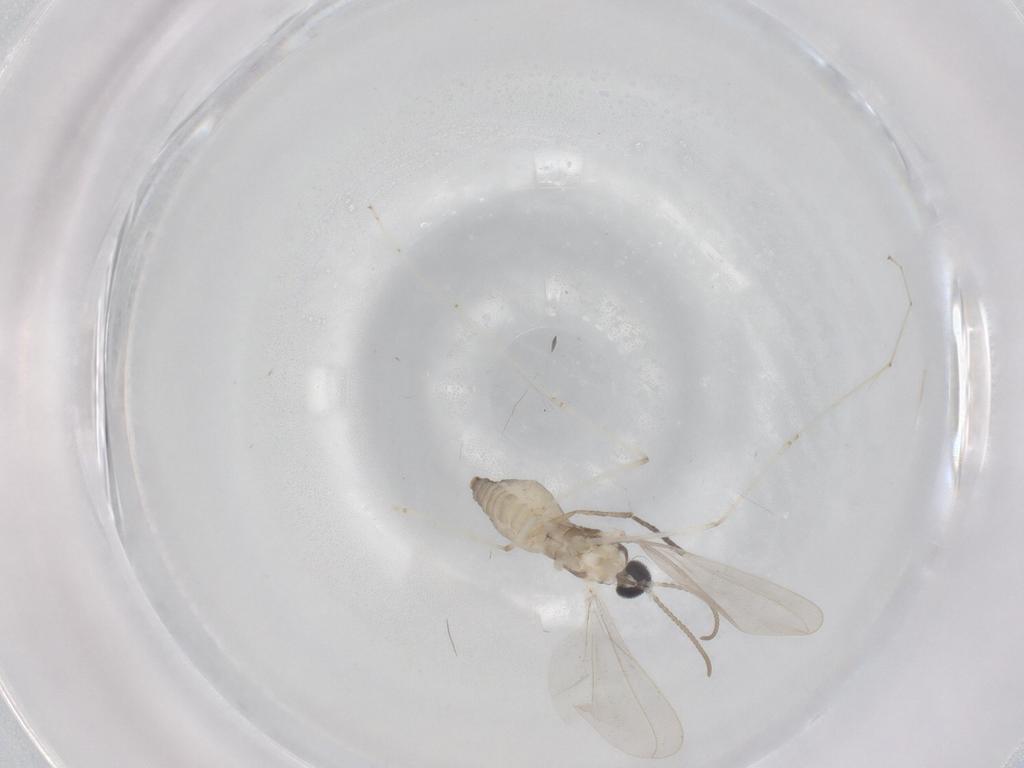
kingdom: Animalia
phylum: Arthropoda
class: Insecta
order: Diptera
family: Cecidomyiidae
